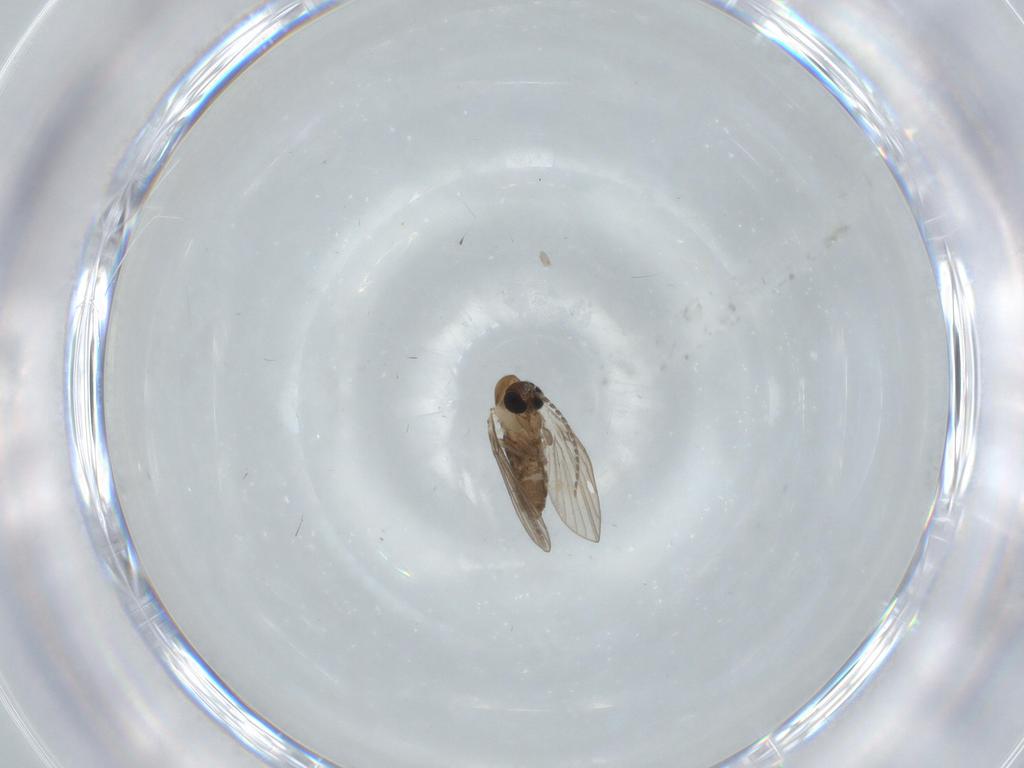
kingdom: Animalia
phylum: Arthropoda
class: Insecta
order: Diptera
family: Psychodidae
